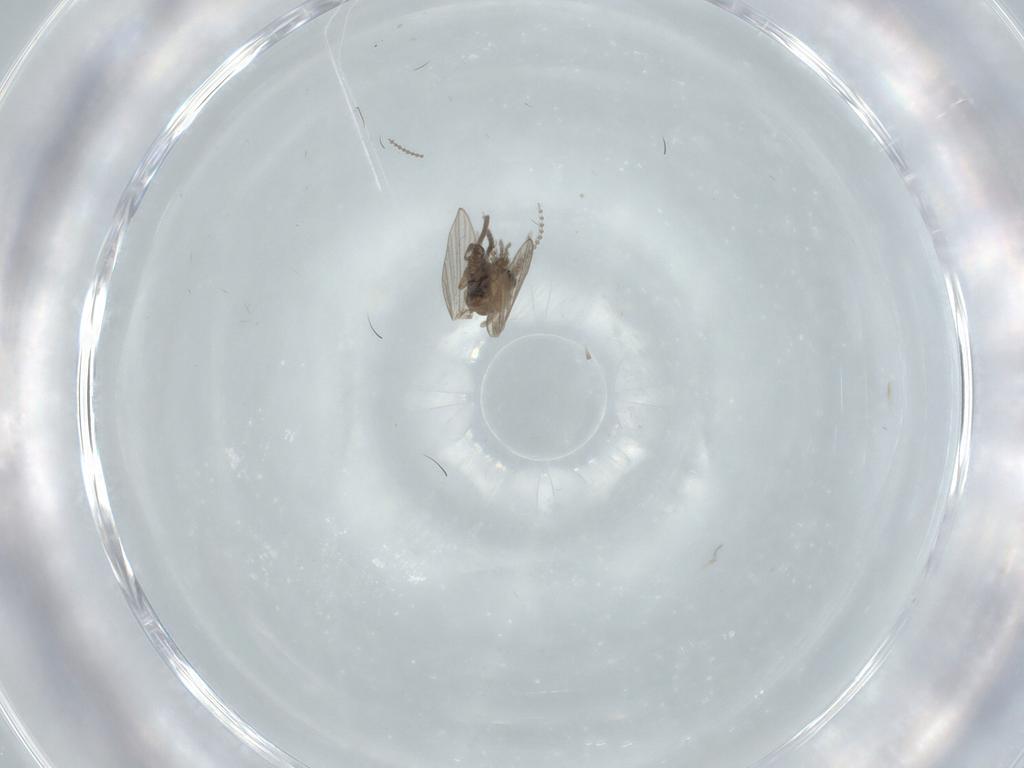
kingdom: Animalia
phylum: Arthropoda
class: Insecta
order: Diptera
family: Psychodidae
